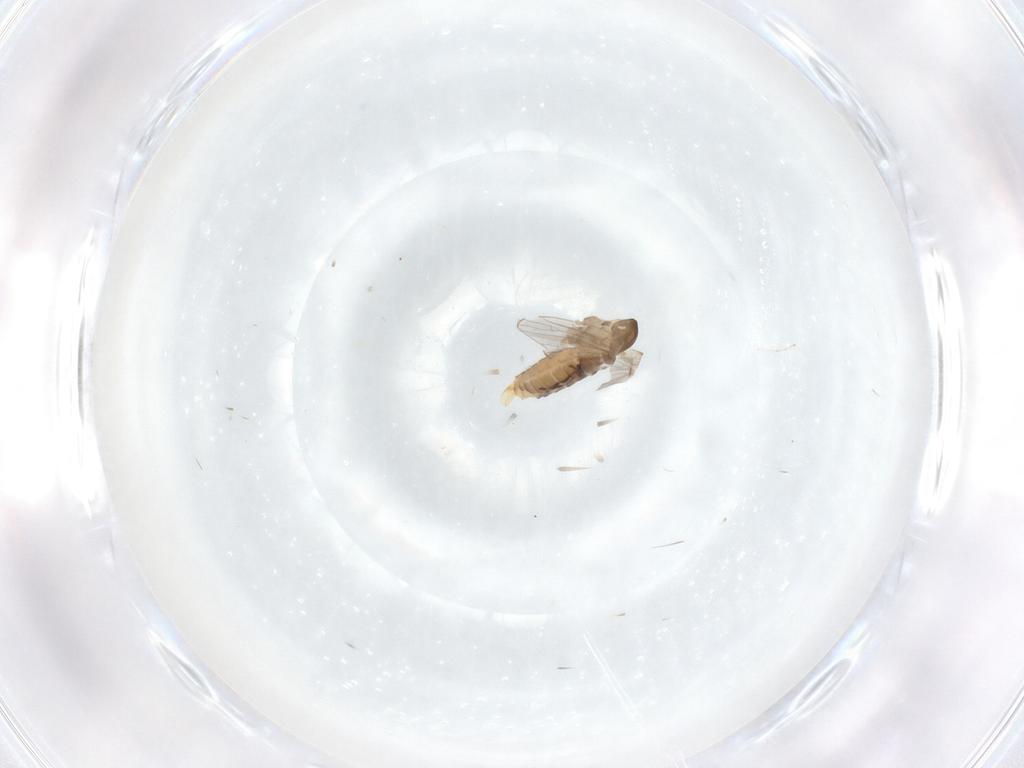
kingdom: Animalia
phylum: Arthropoda
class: Insecta
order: Diptera
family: Psychodidae
